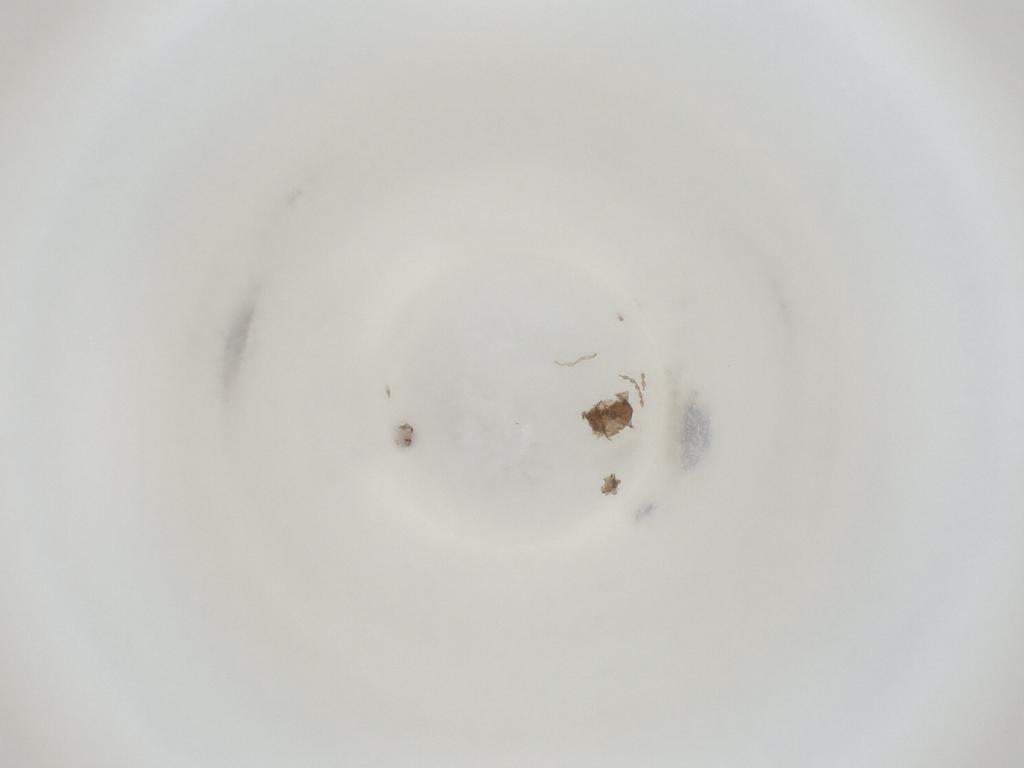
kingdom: Animalia
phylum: Arthropoda
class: Insecta
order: Diptera
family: Cecidomyiidae
